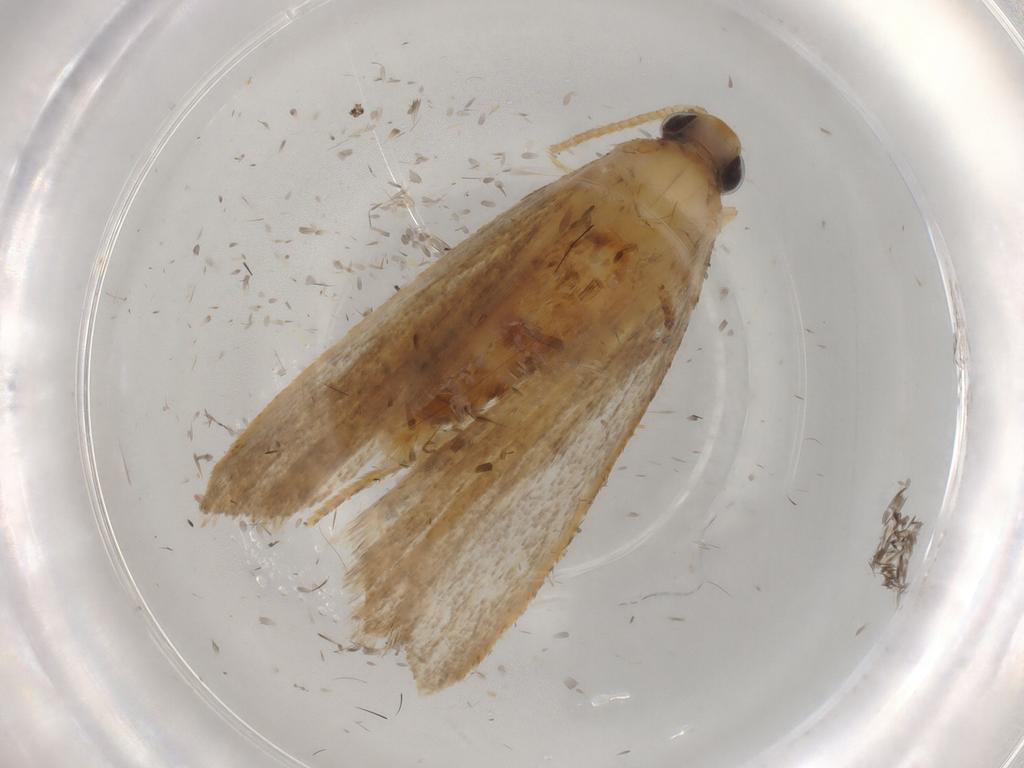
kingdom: Animalia
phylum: Arthropoda
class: Insecta
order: Lepidoptera
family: Autostichidae
